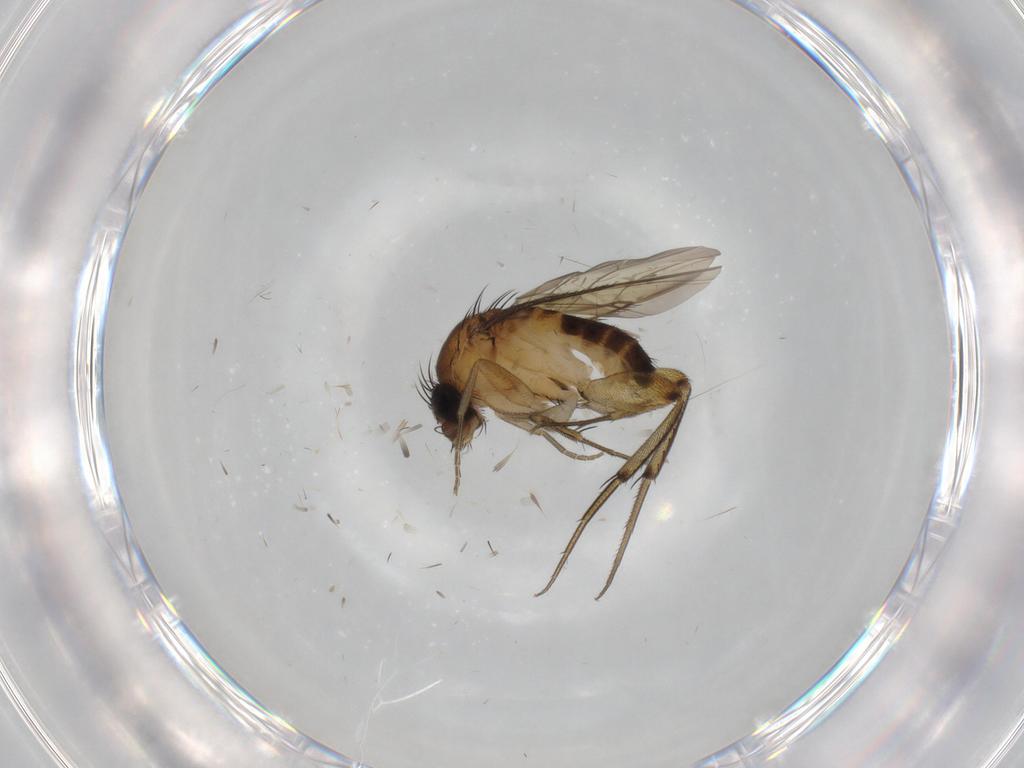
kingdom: Animalia
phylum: Arthropoda
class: Insecta
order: Diptera
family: Phoridae
